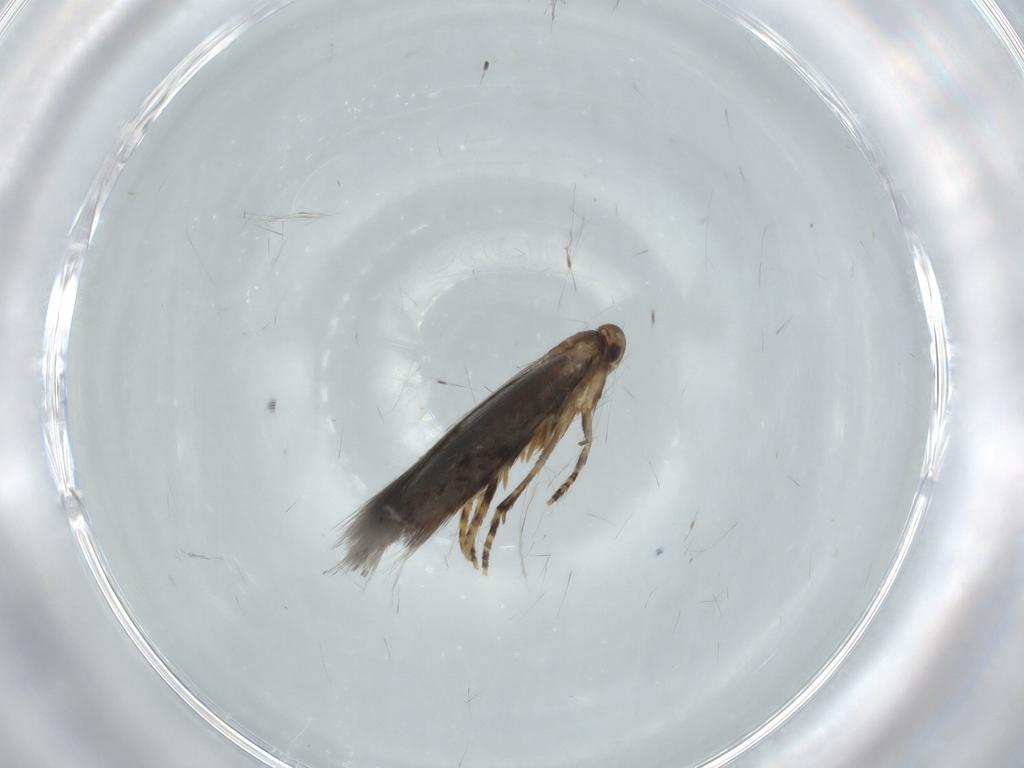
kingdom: Animalia
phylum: Arthropoda
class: Insecta
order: Lepidoptera
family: Elachistidae
